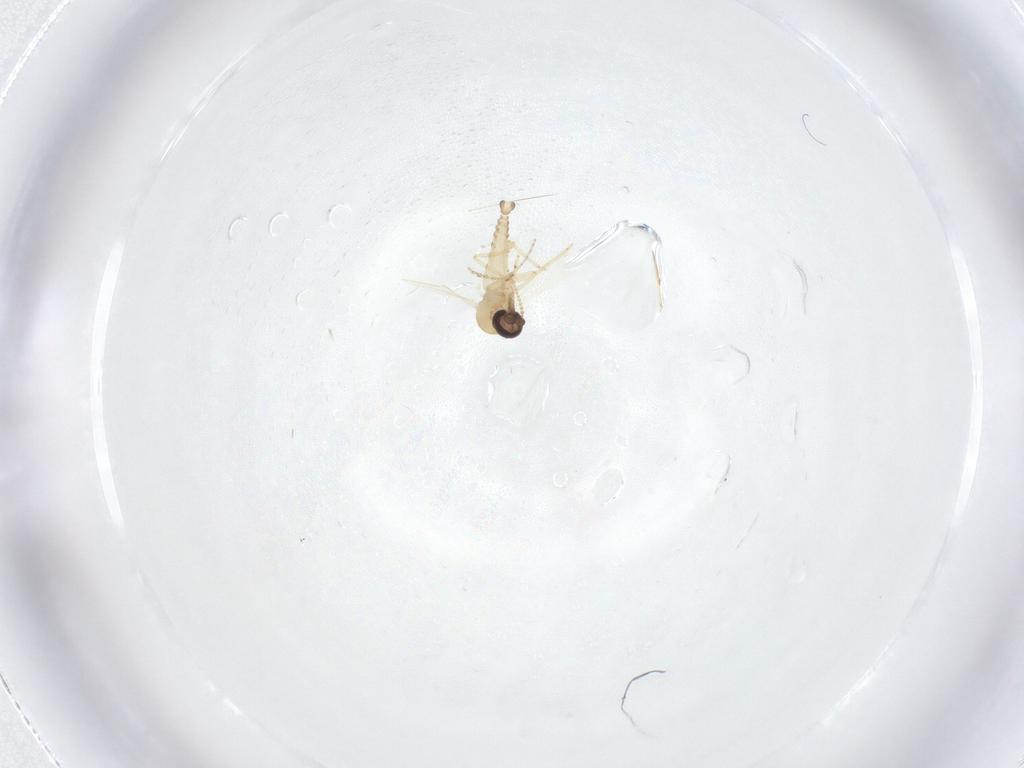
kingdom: Animalia
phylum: Arthropoda
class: Insecta
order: Diptera
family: Ceratopogonidae
